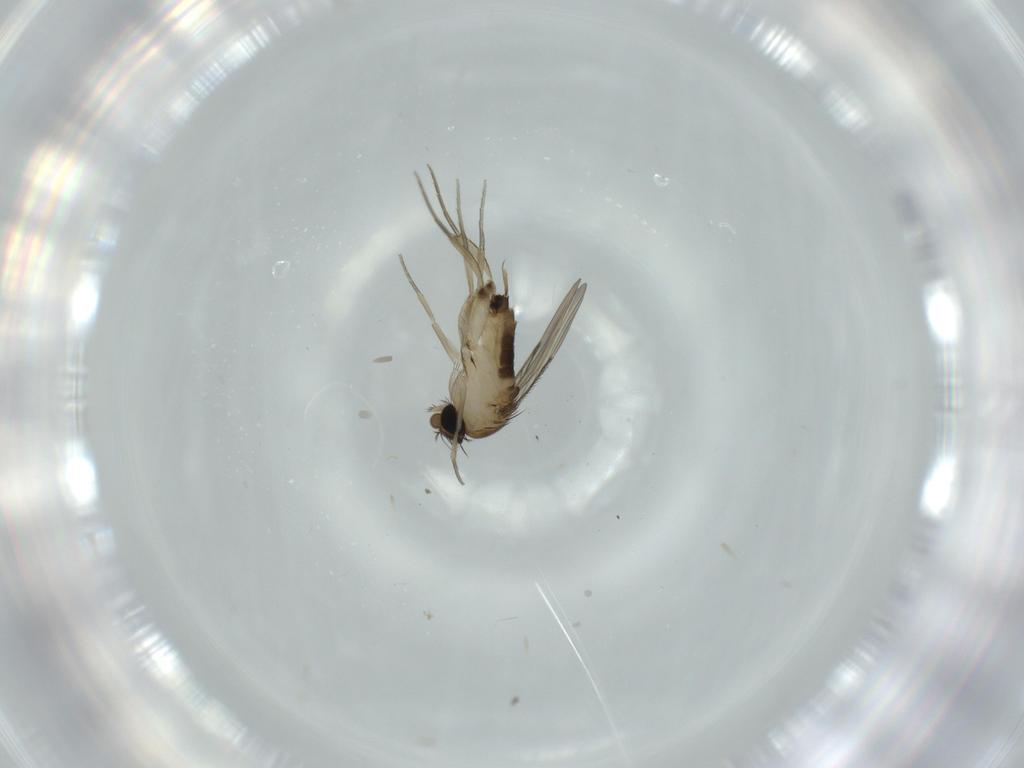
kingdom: Animalia
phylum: Arthropoda
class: Insecta
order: Diptera
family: Phoridae
